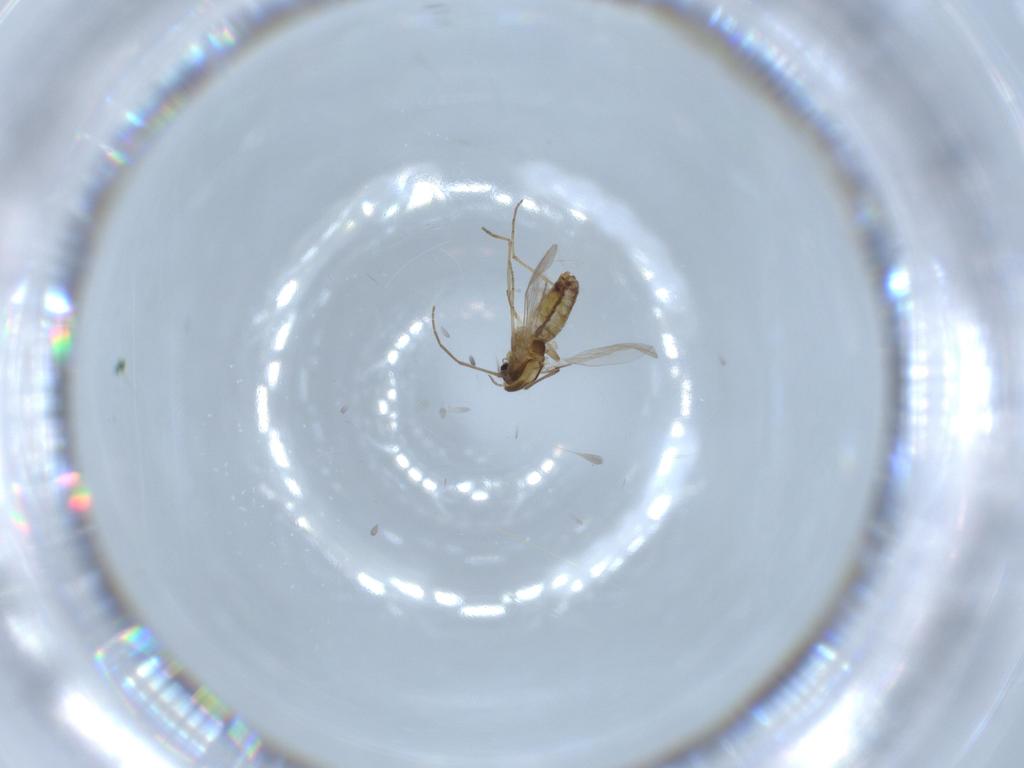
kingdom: Animalia
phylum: Arthropoda
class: Insecta
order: Diptera
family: Chironomidae
